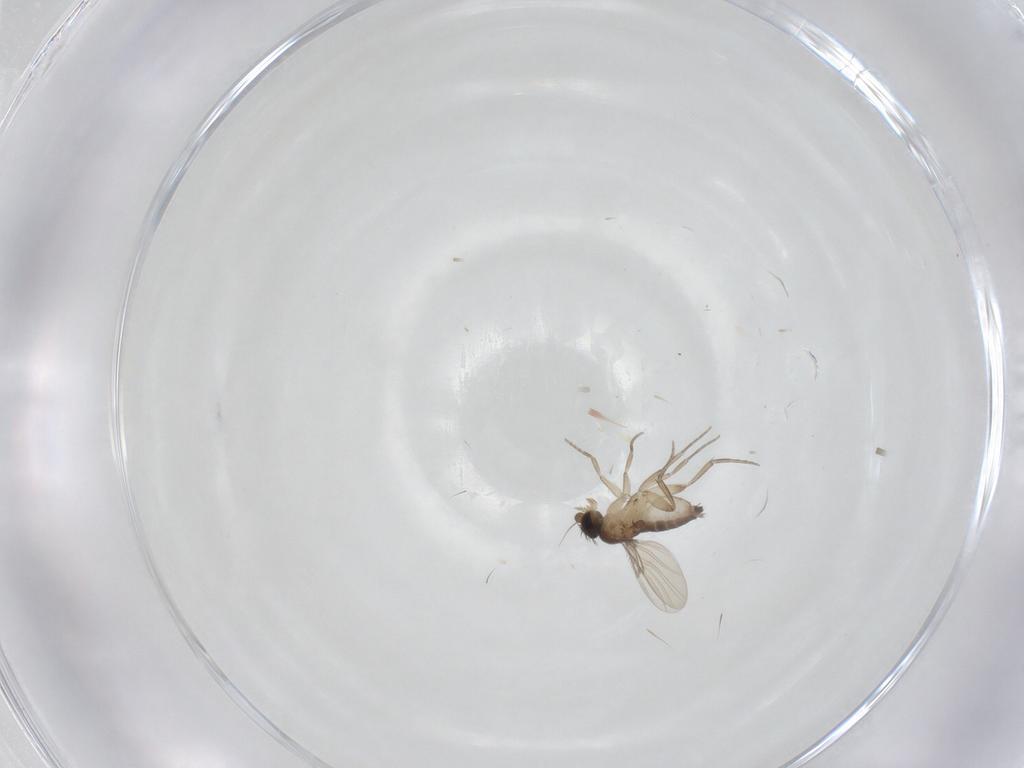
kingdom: Animalia
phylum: Arthropoda
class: Insecta
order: Diptera
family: Phoridae
